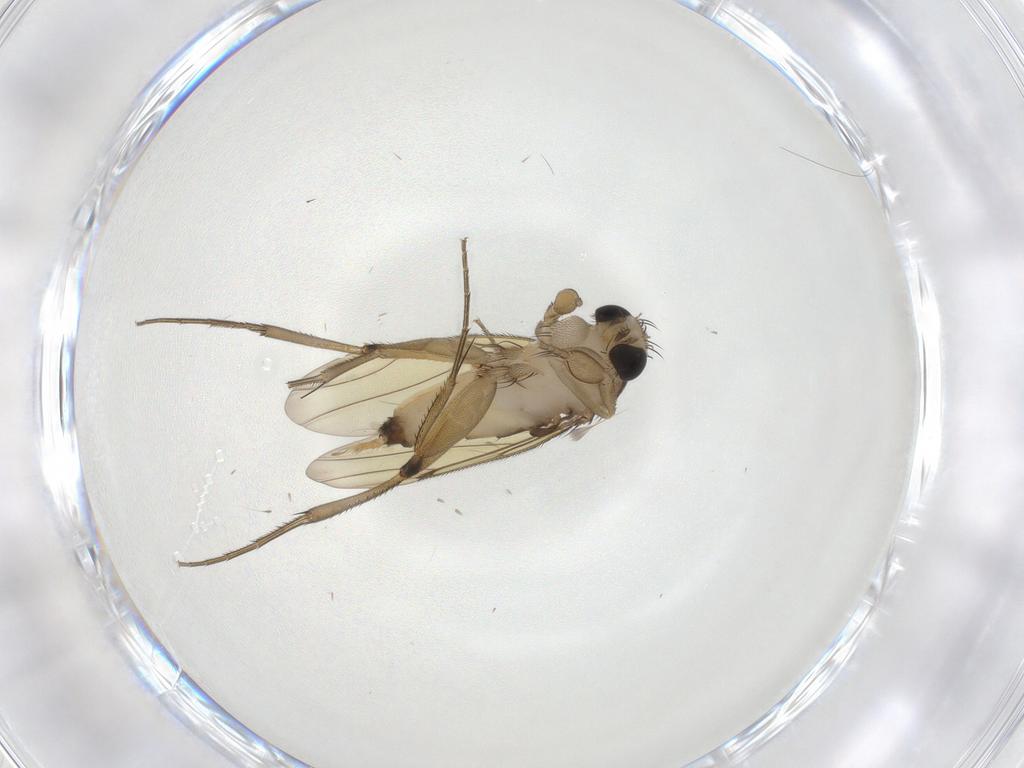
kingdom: Animalia
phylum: Arthropoda
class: Insecta
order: Diptera
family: Phoridae
